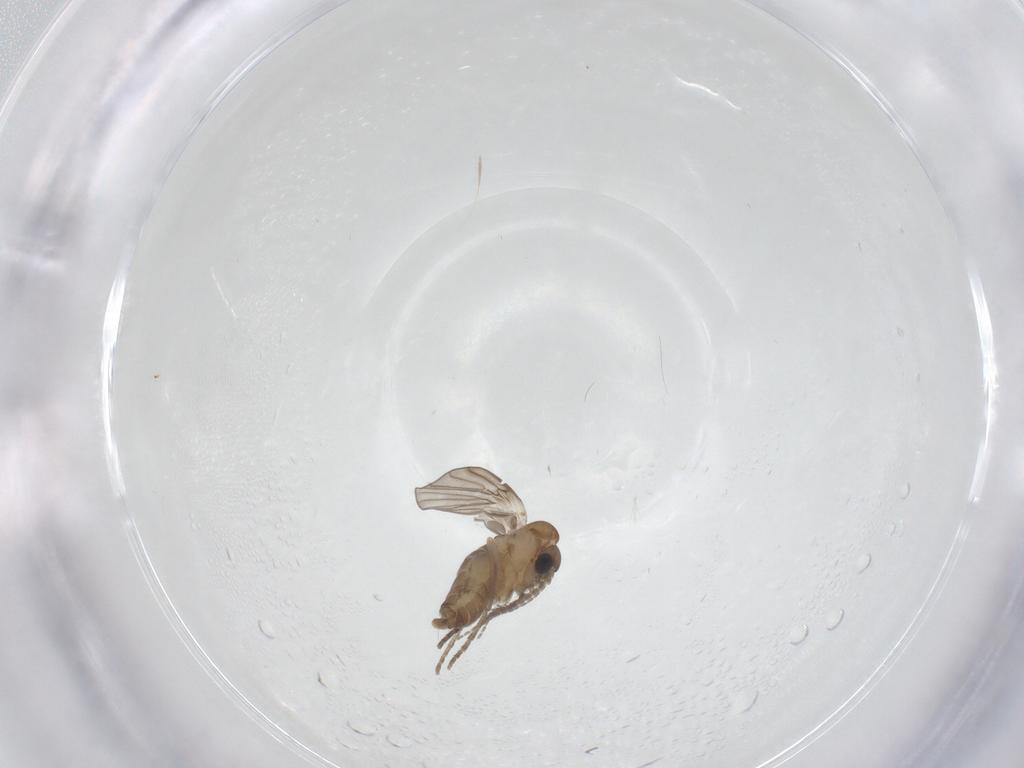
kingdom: Animalia
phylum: Arthropoda
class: Insecta
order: Diptera
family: Cecidomyiidae
